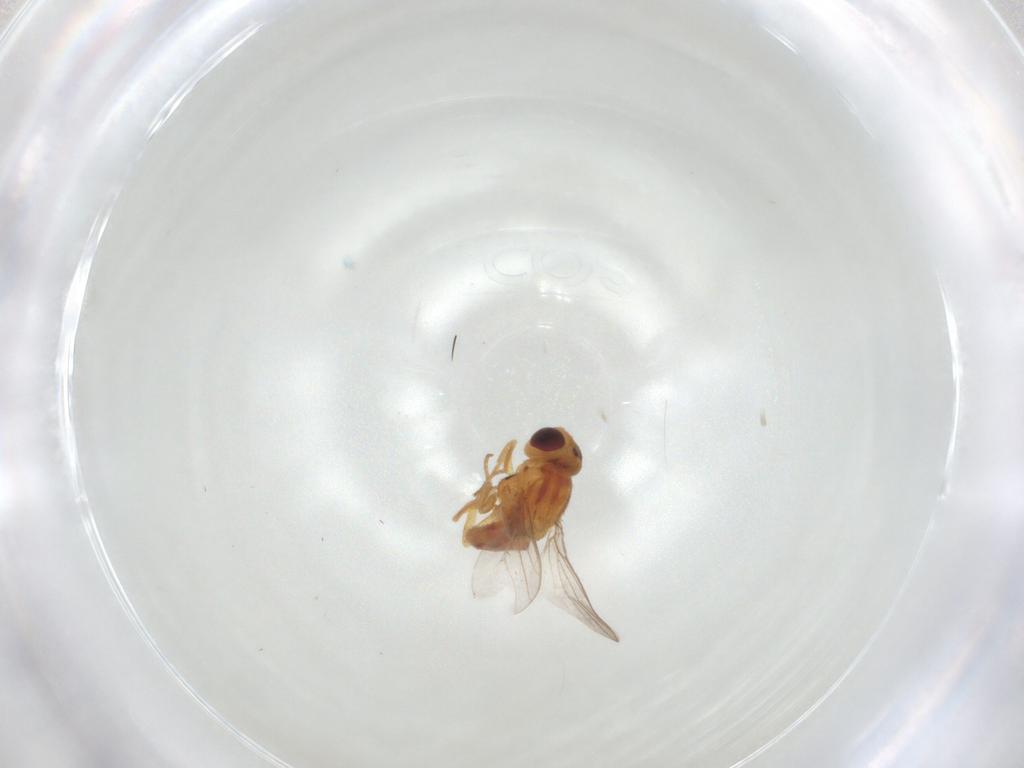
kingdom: Animalia
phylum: Arthropoda
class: Insecta
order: Diptera
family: Chloropidae
